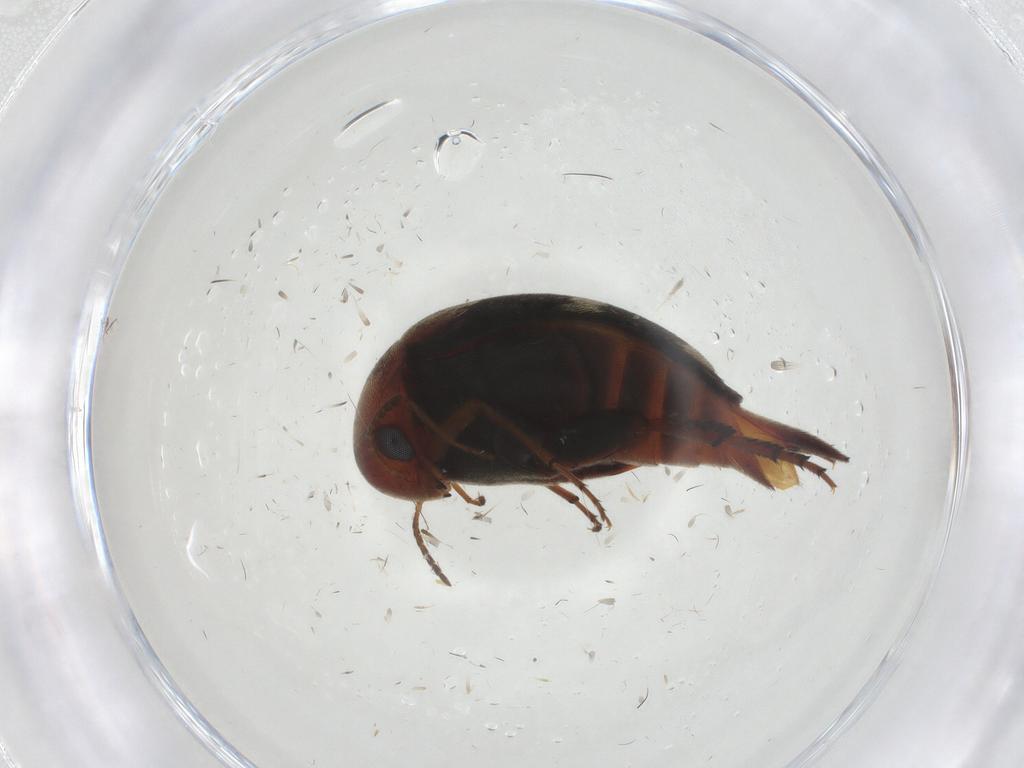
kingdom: Animalia
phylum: Arthropoda
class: Insecta
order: Coleoptera
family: Mordellidae
